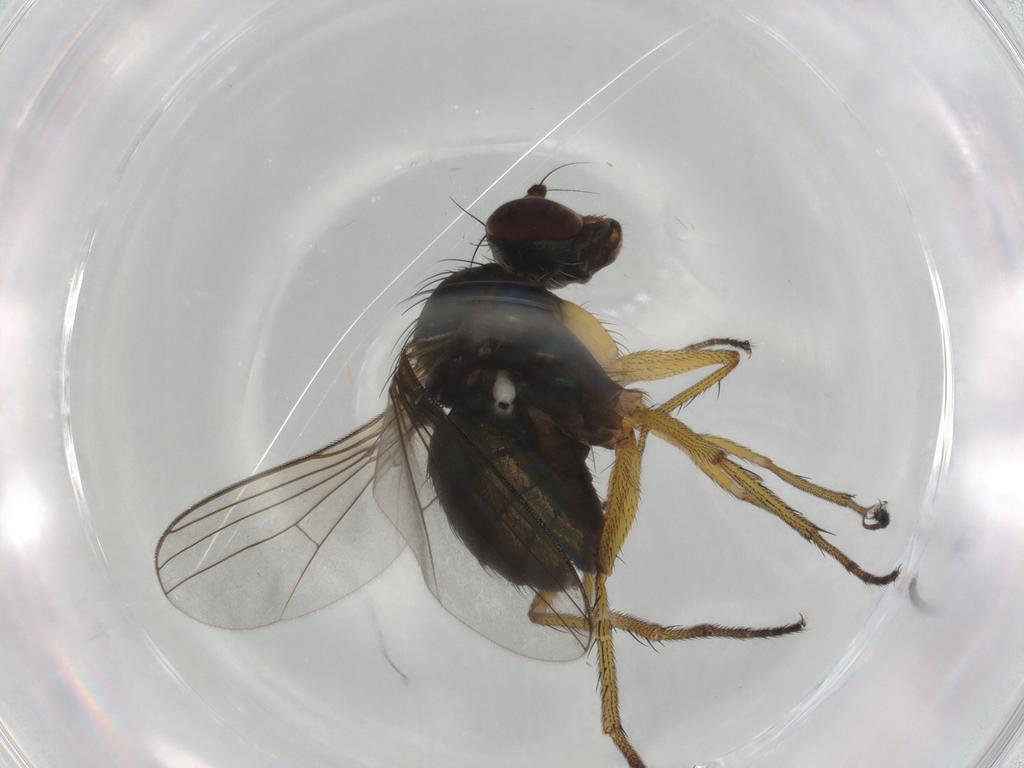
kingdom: Animalia
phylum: Arthropoda
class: Insecta
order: Diptera
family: Dolichopodidae
